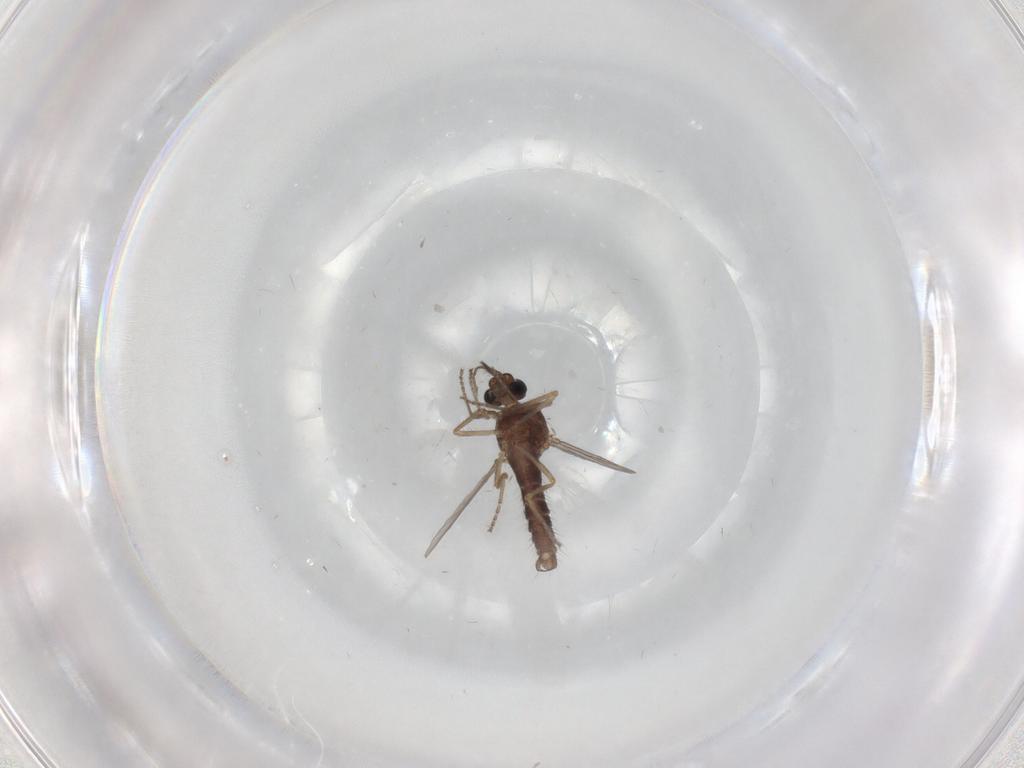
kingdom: Animalia
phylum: Arthropoda
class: Insecta
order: Diptera
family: Ceratopogonidae
